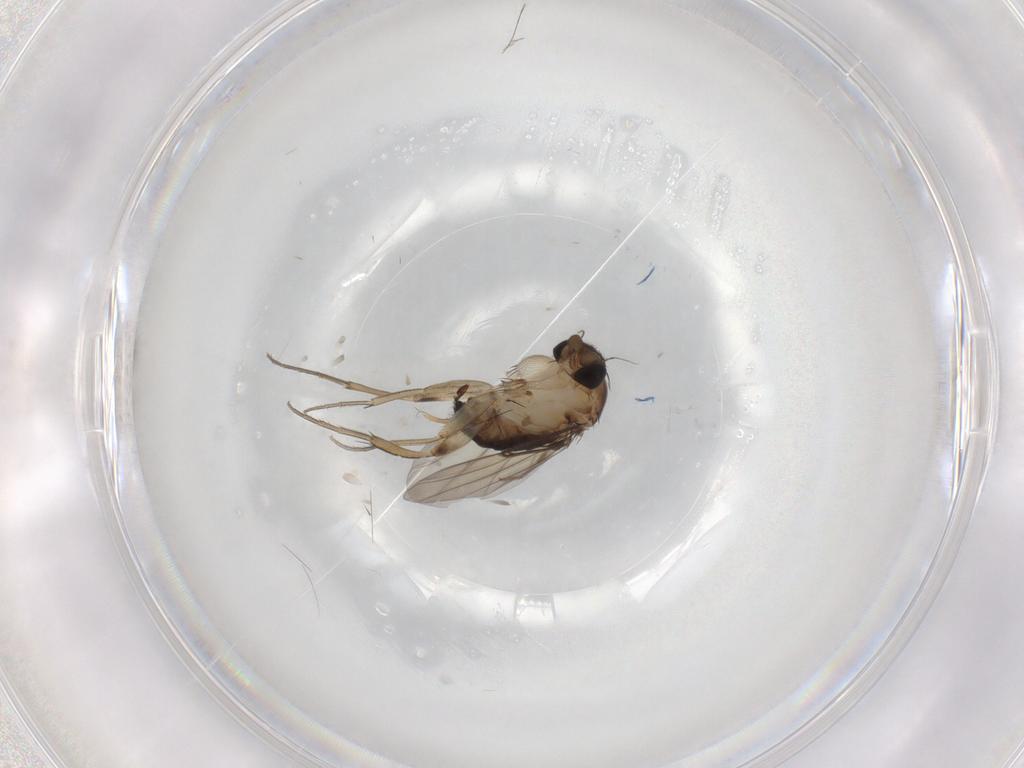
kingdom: Animalia
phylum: Arthropoda
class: Insecta
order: Diptera
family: Phoridae
